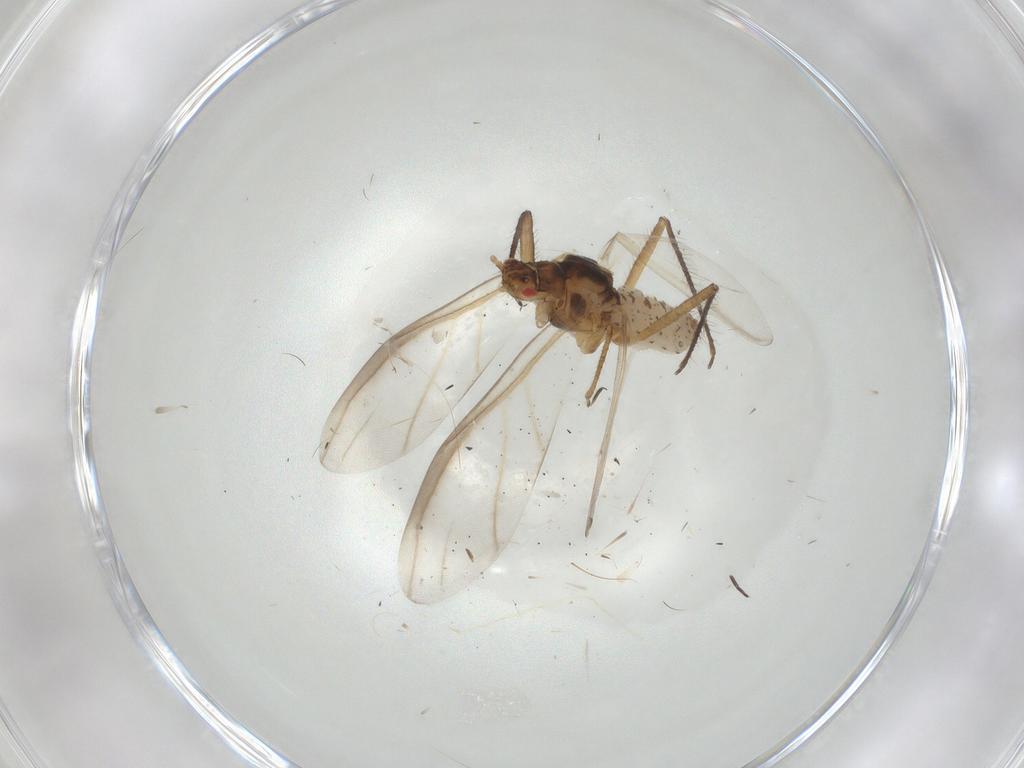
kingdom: Animalia
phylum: Arthropoda
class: Insecta
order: Hemiptera
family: Lachnidae
